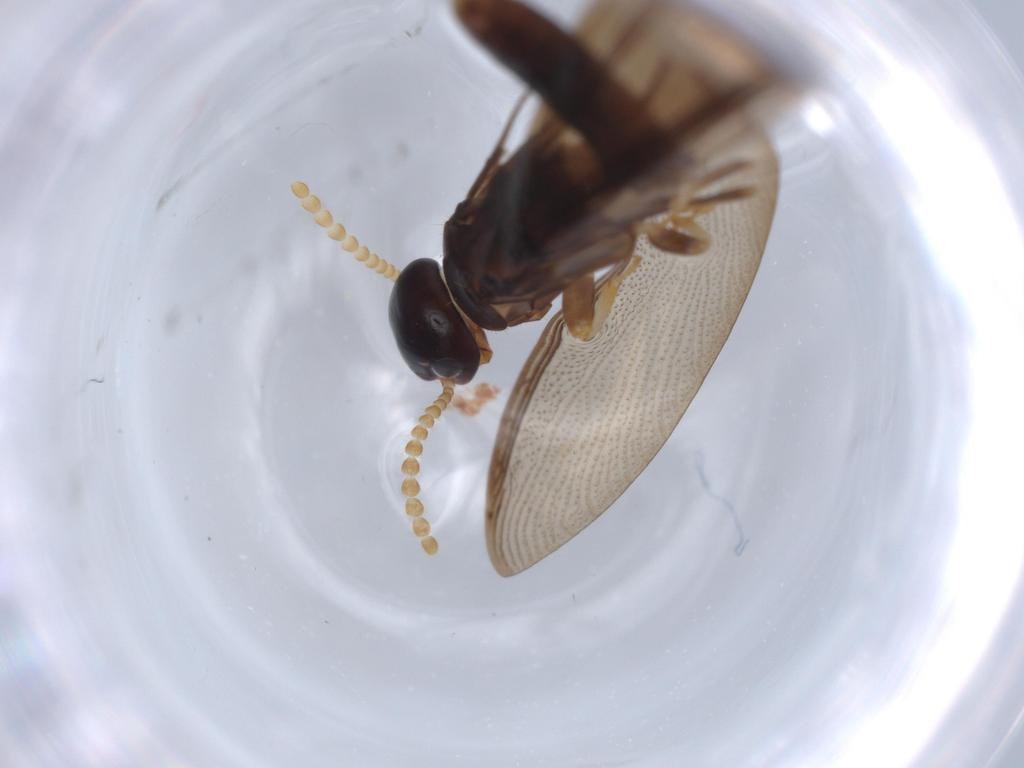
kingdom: Animalia
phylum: Arthropoda
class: Insecta
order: Blattodea
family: Kalotermitidae
